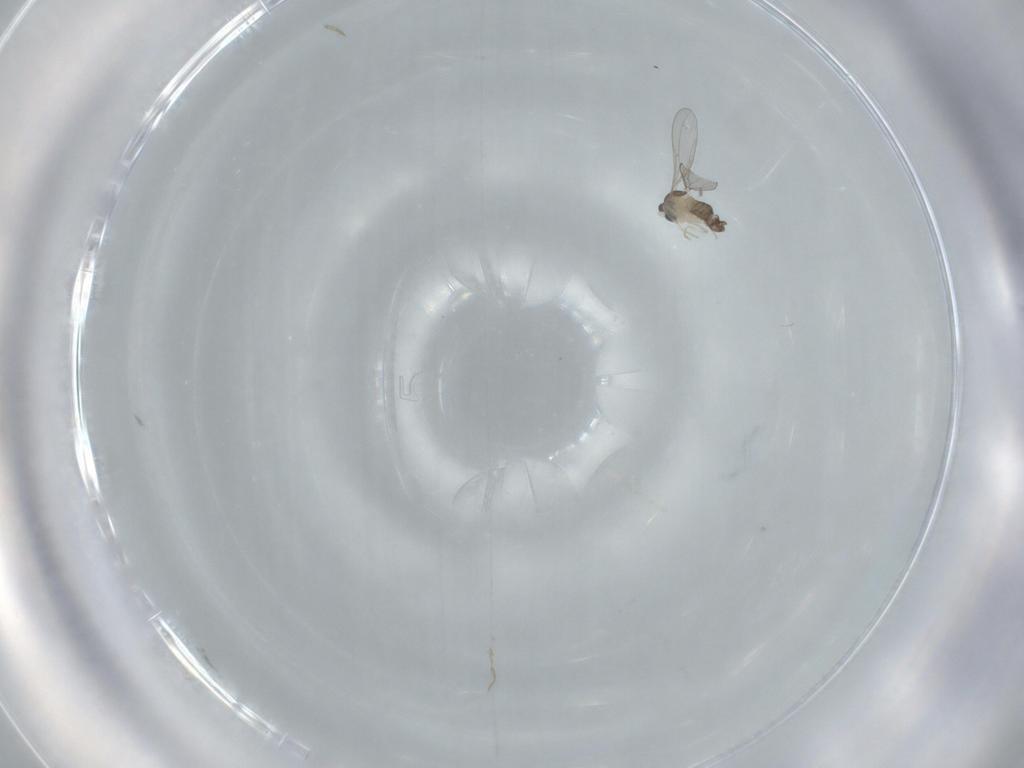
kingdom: Animalia
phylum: Arthropoda
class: Insecta
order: Diptera
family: Cecidomyiidae
